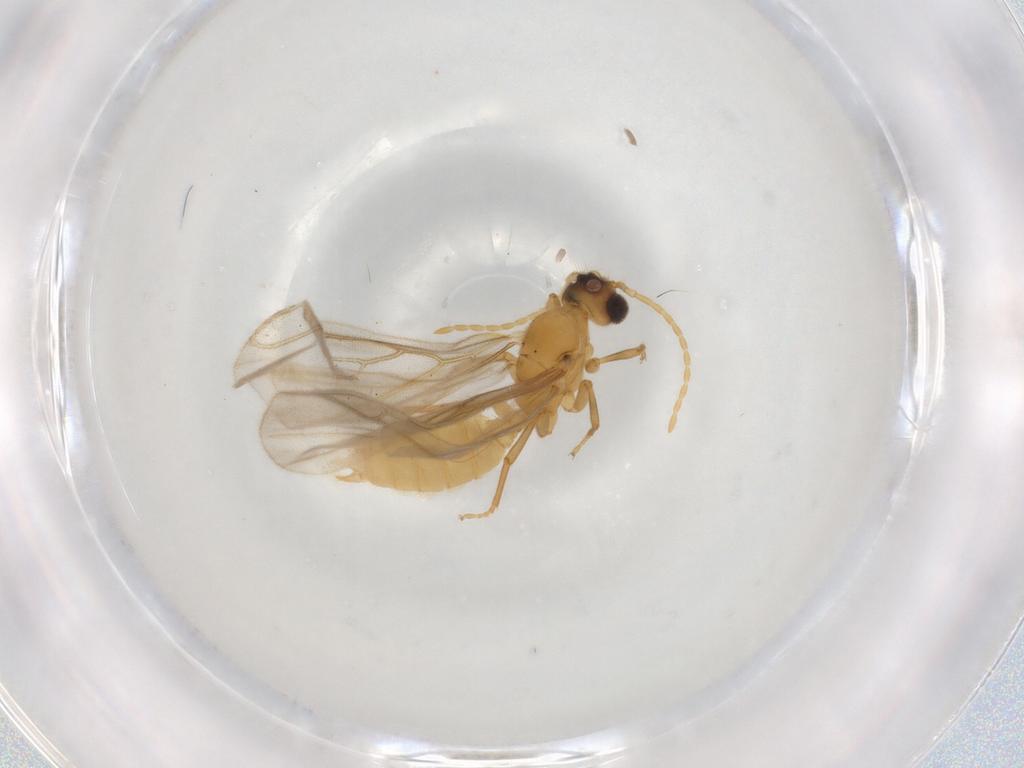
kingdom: Animalia
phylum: Arthropoda
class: Insecta
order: Hymenoptera
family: Formicidae
